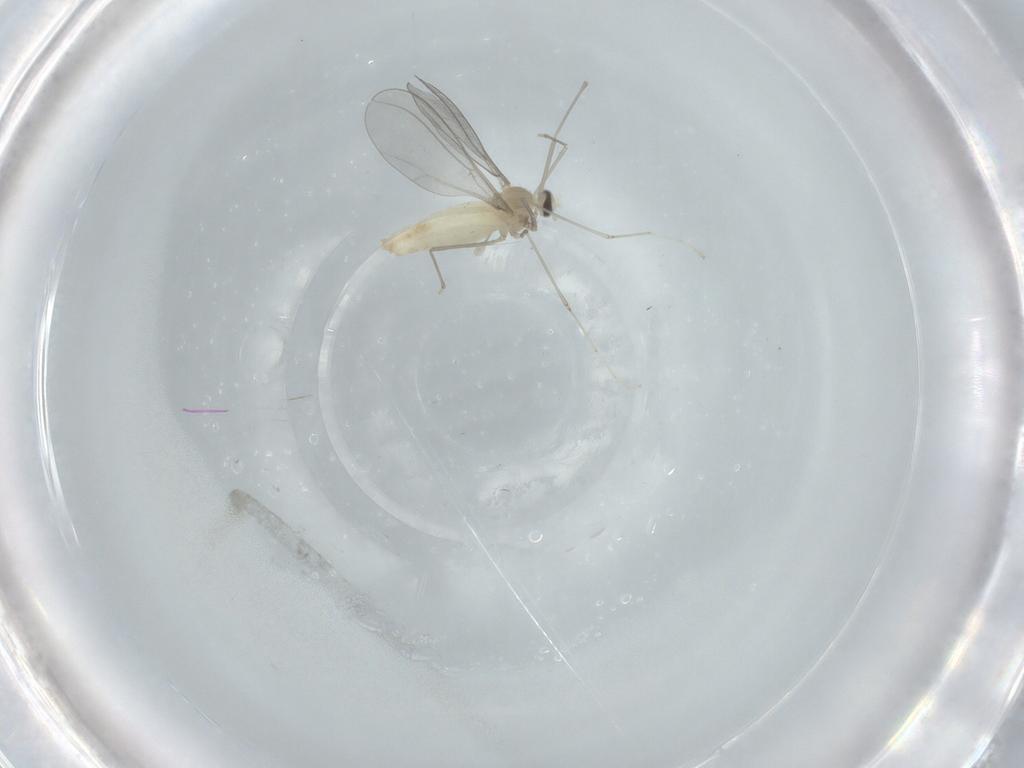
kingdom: Animalia
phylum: Arthropoda
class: Insecta
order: Diptera
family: Cecidomyiidae
